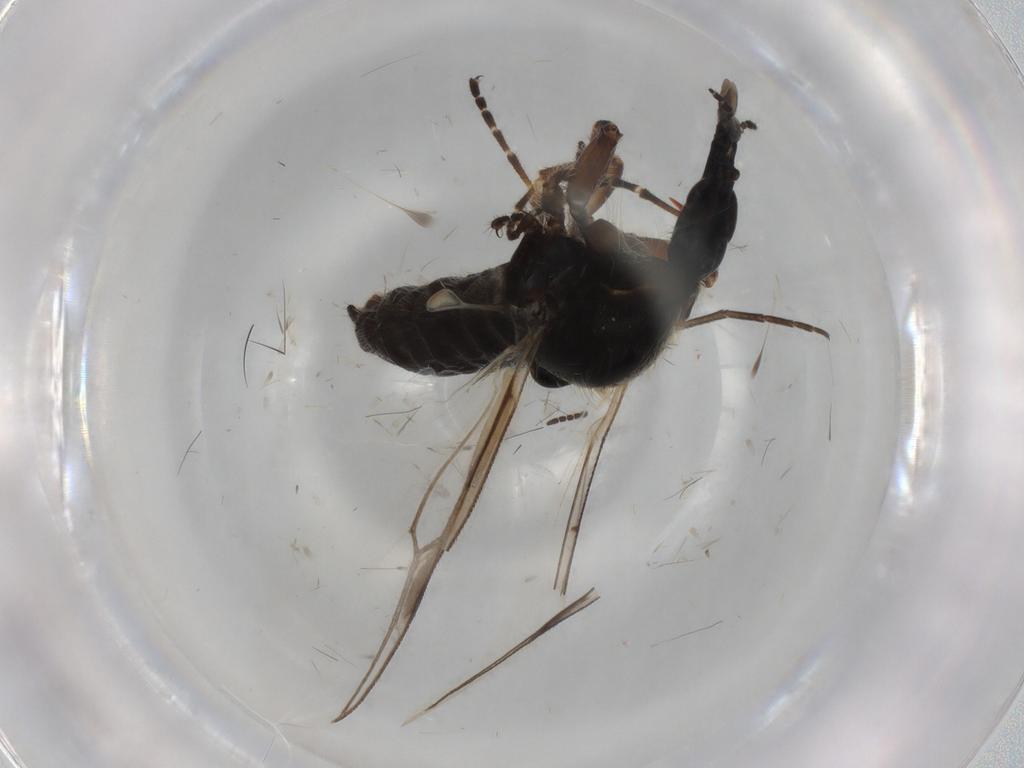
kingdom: Animalia
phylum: Arthropoda
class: Insecta
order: Diptera
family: Bibionidae
